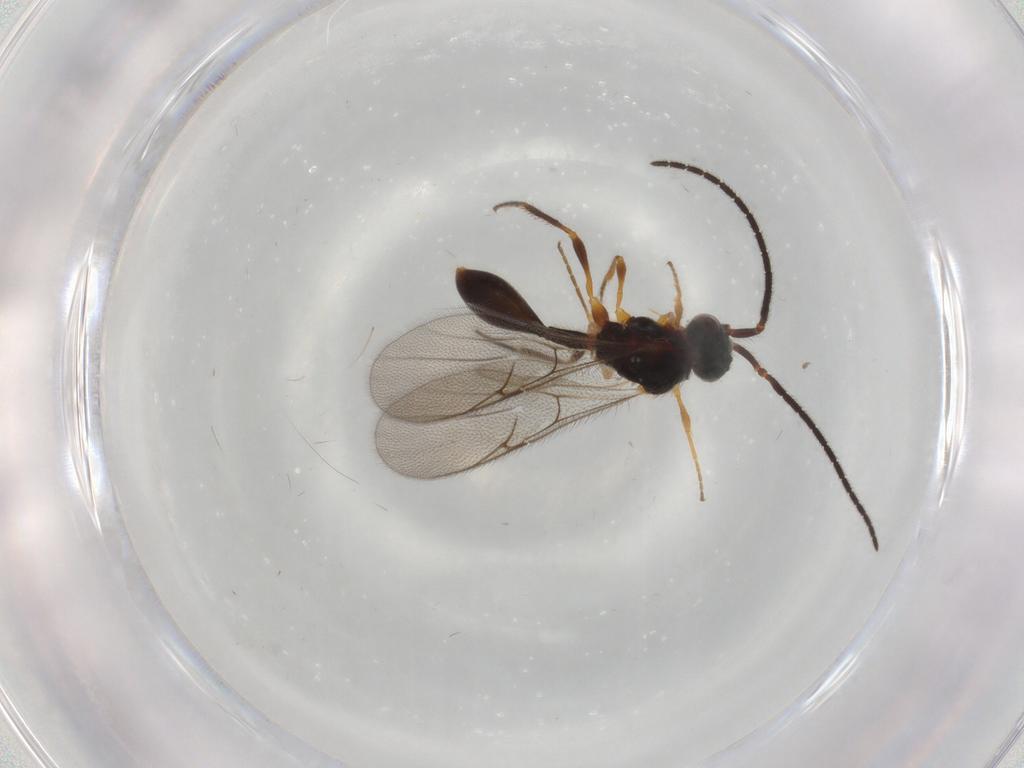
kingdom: Animalia
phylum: Arthropoda
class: Insecta
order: Hymenoptera
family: Diapriidae
